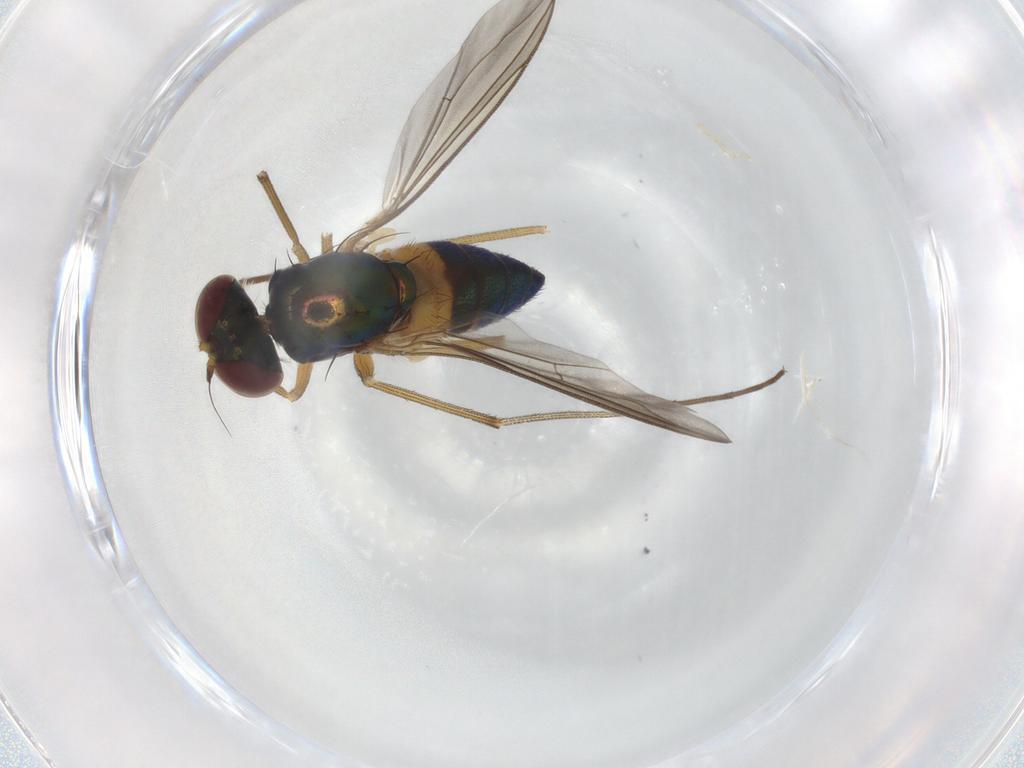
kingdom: Animalia
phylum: Arthropoda
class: Insecta
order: Diptera
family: Dolichopodidae
